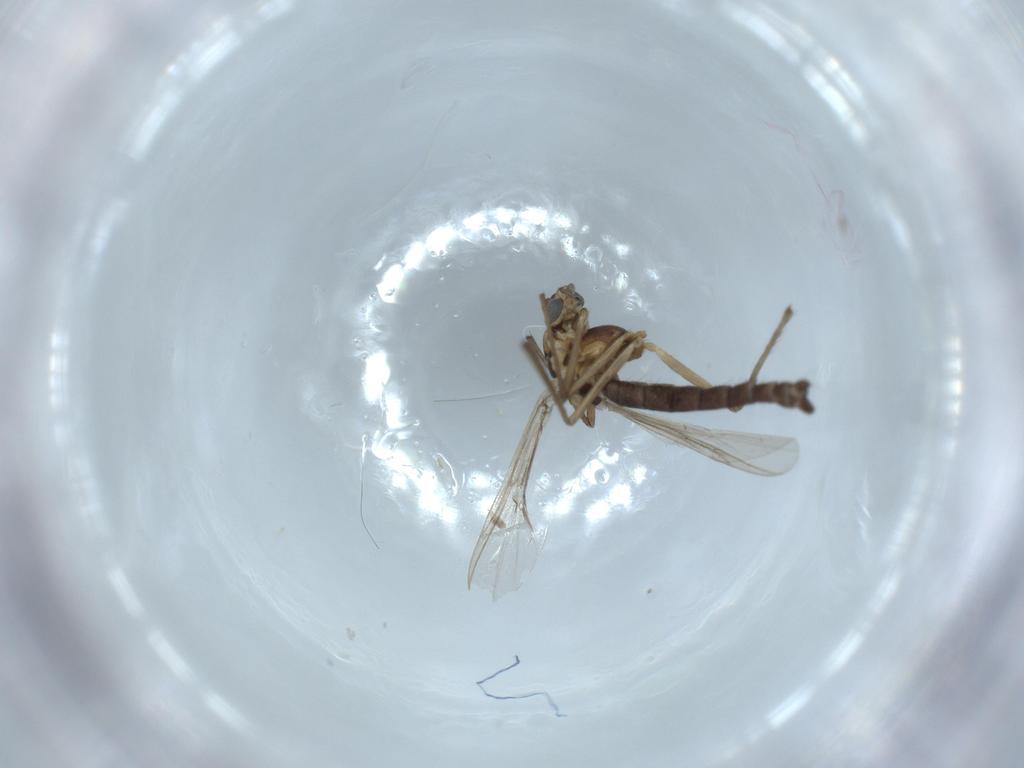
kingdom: Animalia
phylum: Arthropoda
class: Insecta
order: Diptera
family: Chironomidae
